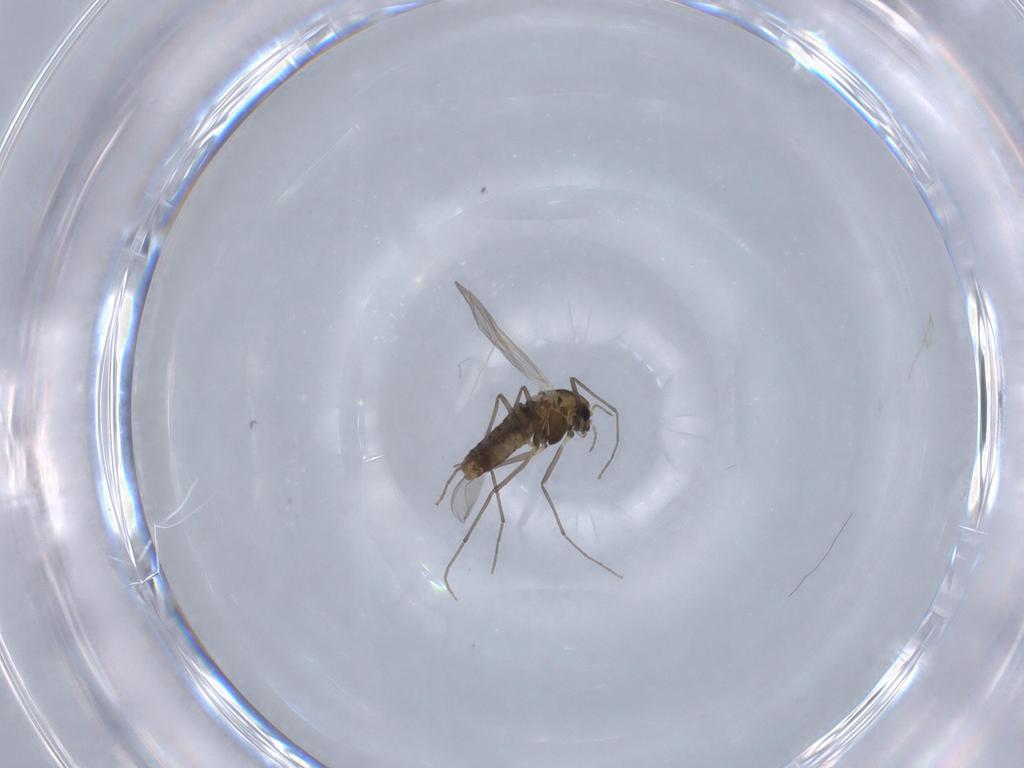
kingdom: Animalia
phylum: Arthropoda
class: Insecta
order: Diptera
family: Chironomidae
